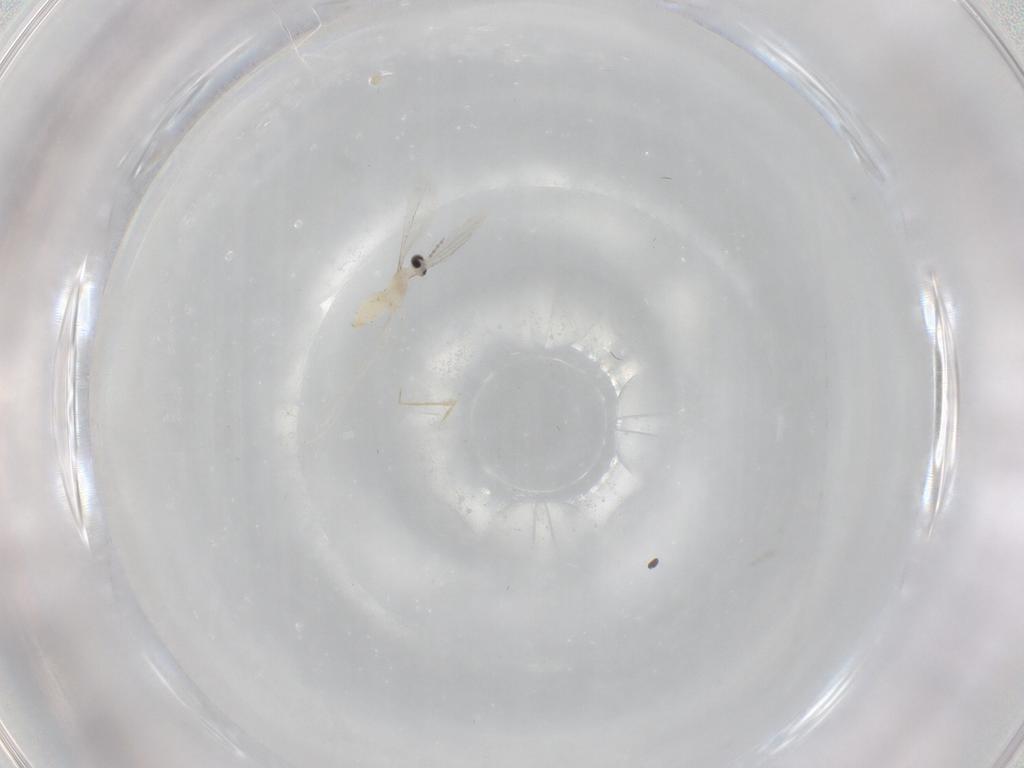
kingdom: Animalia
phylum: Arthropoda
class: Insecta
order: Diptera
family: Cecidomyiidae
